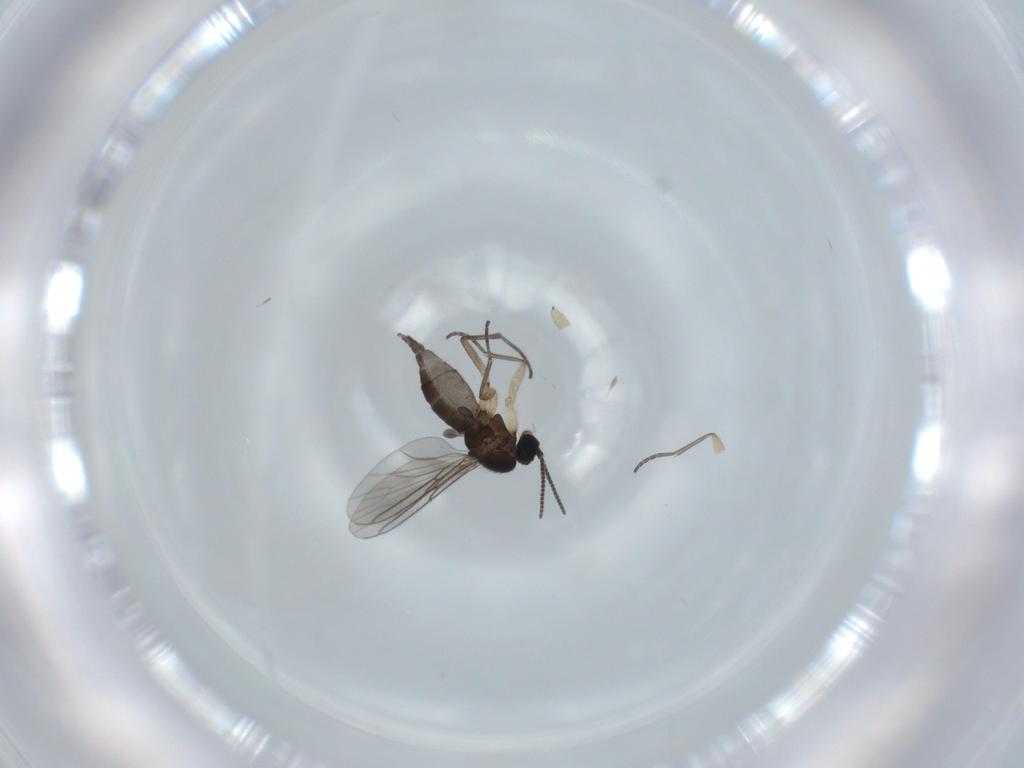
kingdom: Animalia
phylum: Arthropoda
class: Insecta
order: Diptera
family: Sciaridae
